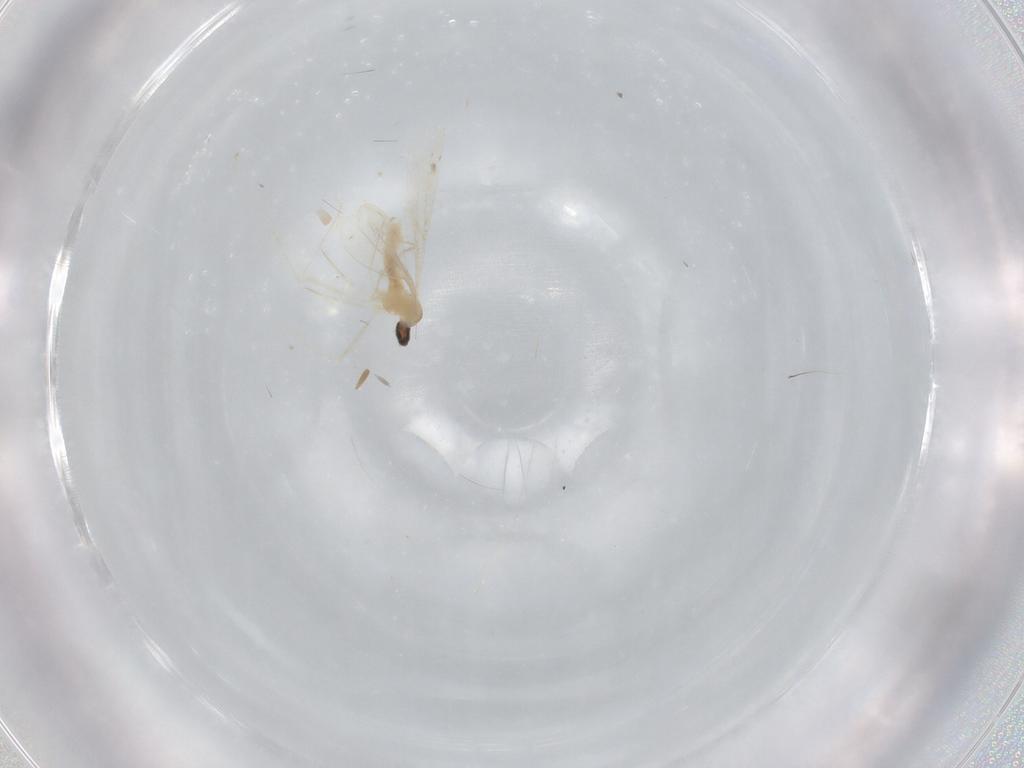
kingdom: Animalia
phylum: Arthropoda
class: Insecta
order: Diptera
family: Cecidomyiidae
